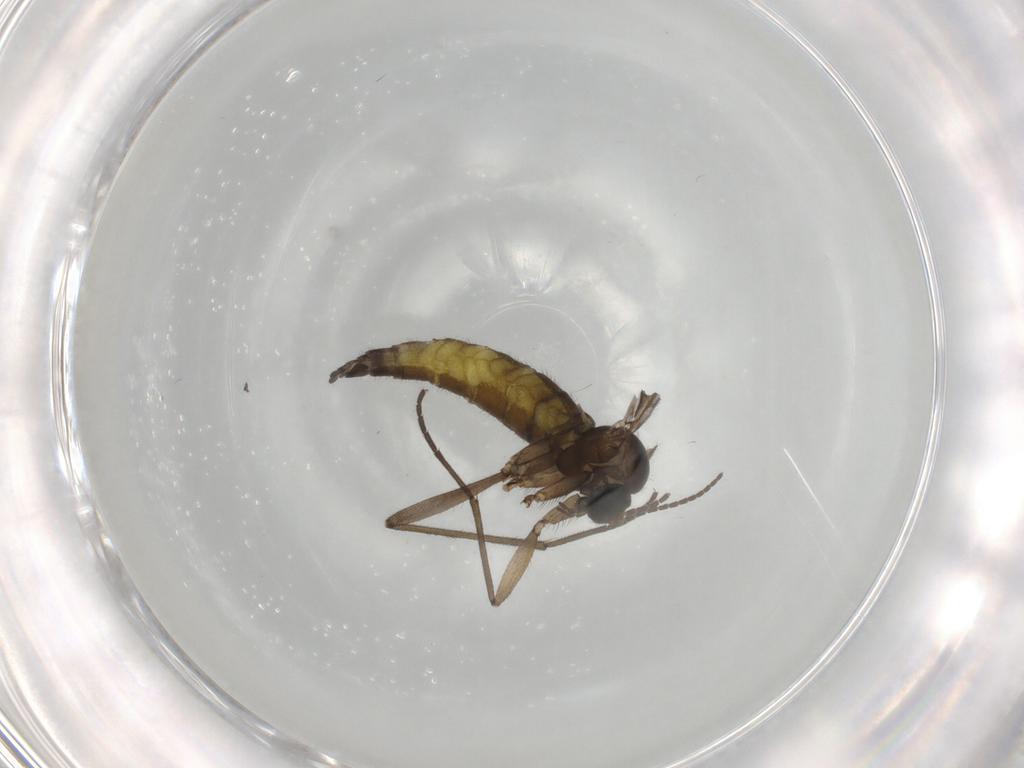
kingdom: Animalia
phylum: Arthropoda
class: Insecta
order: Diptera
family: Sciaridae
